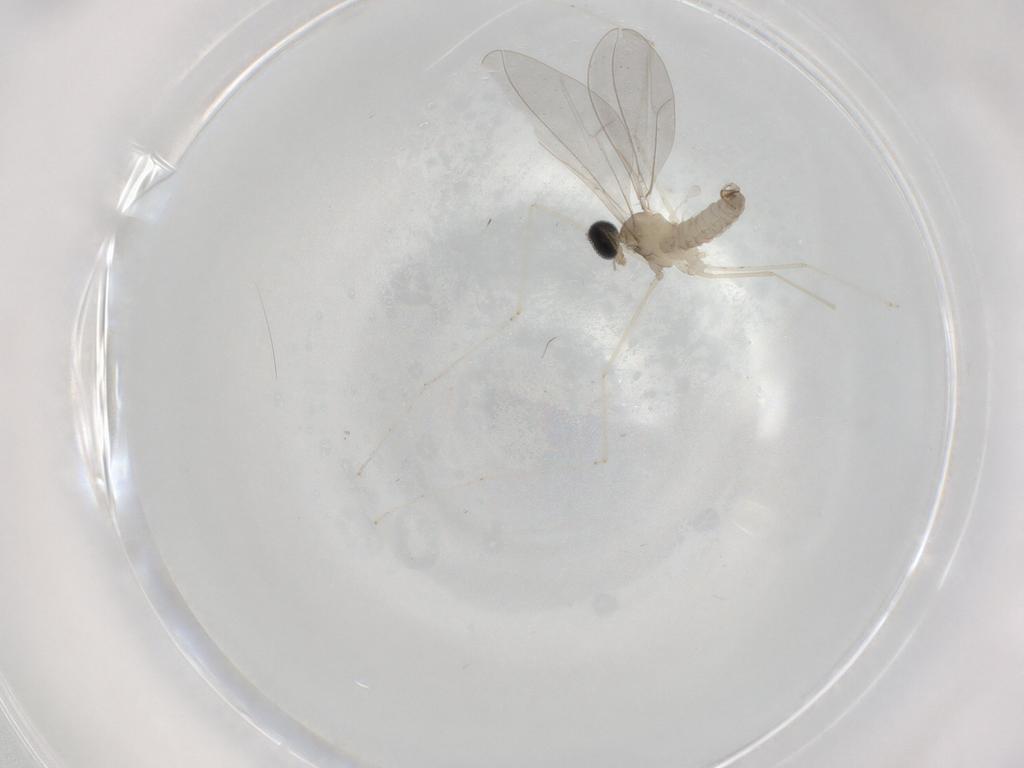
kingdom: Animalia
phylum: Arthropoda
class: Insecta
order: Diptera
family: Cecidomyiidae
